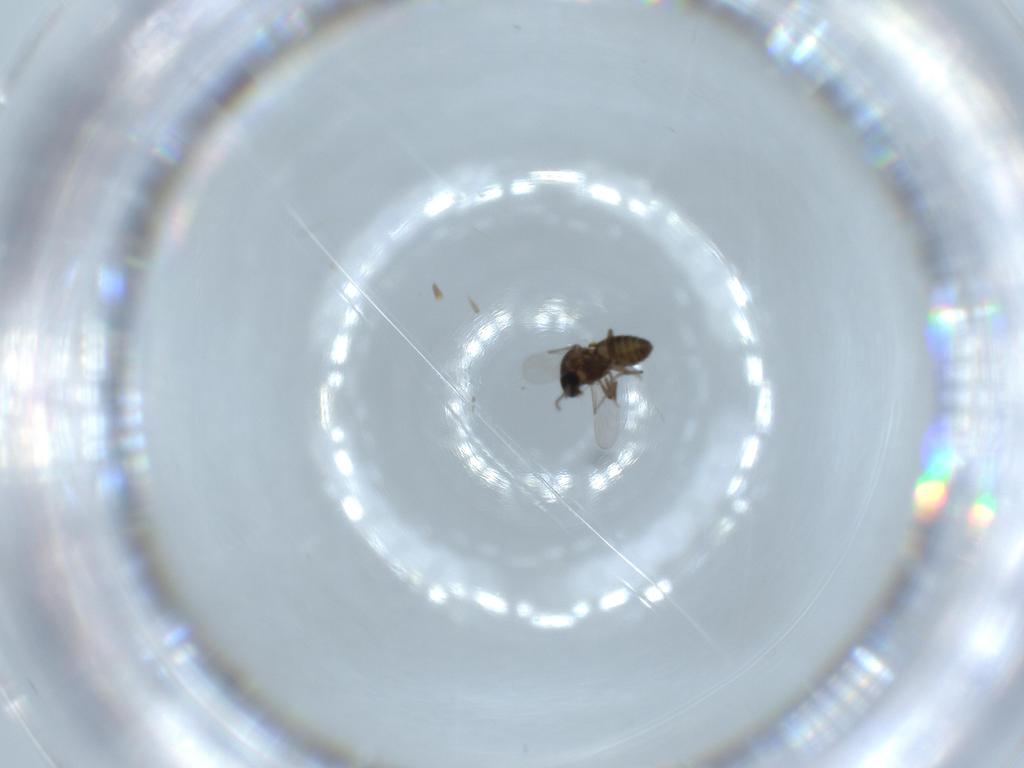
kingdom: Animalia
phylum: Arthropoda
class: Insecta
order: Diptera
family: Ceratopogonidae
